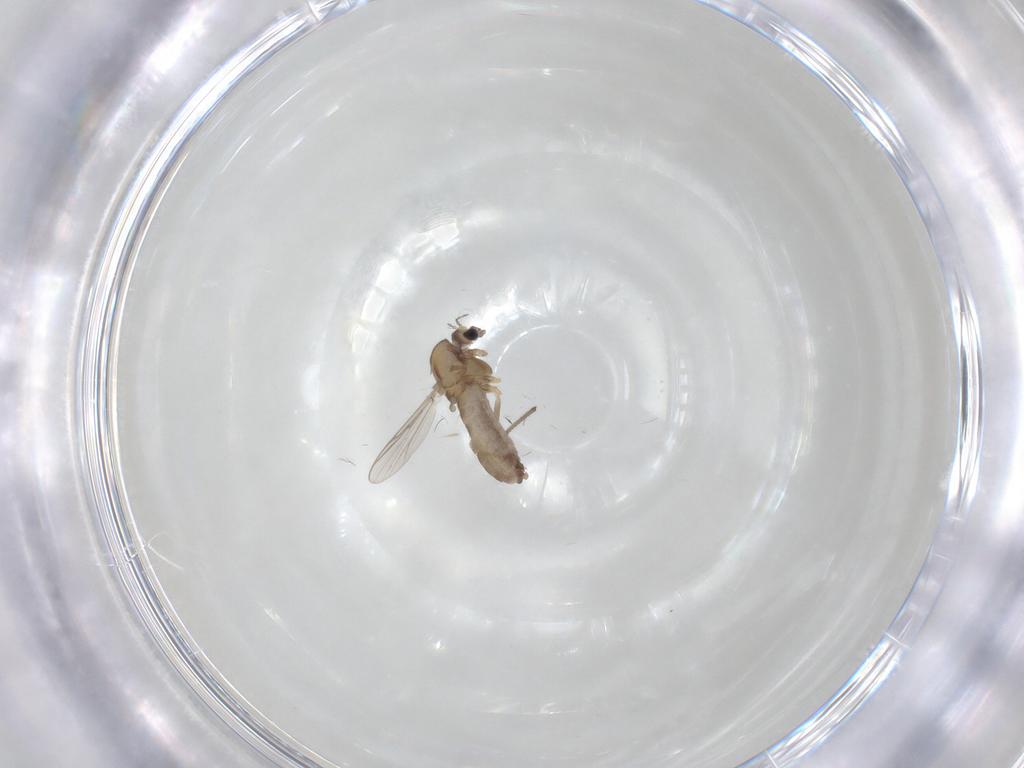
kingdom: Animalia
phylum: Arthropoda
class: Insecta
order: Diptera
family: Chironomidae
